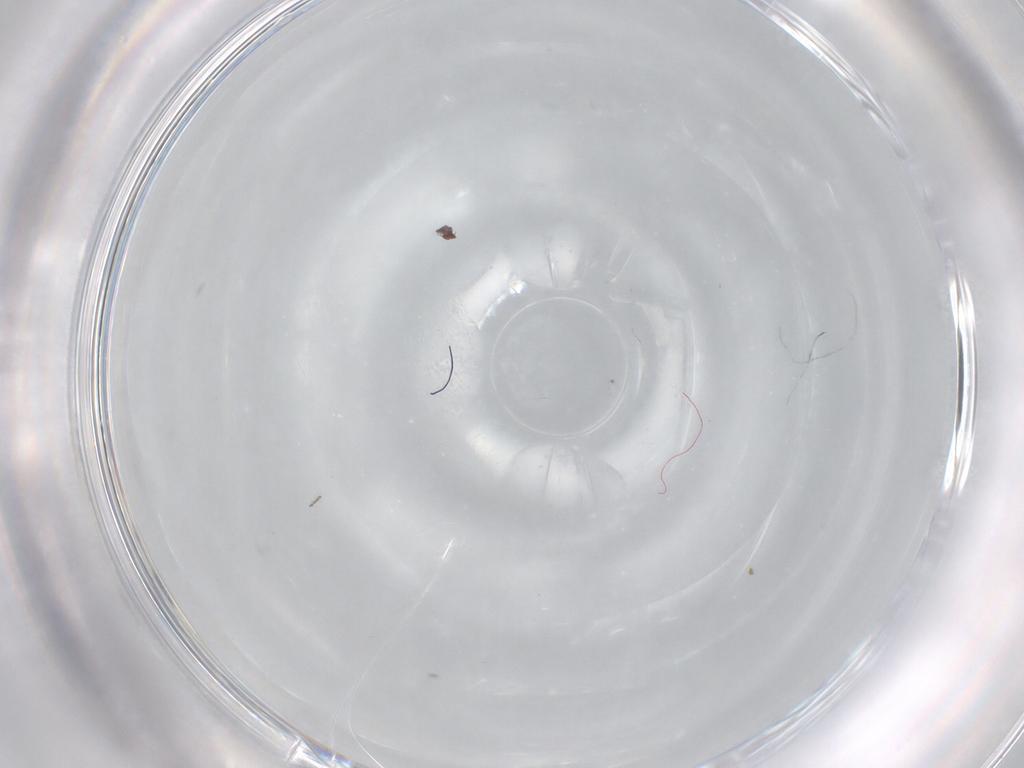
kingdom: Animalia
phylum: Arthropoda
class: Insecta
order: Diptera
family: Cecidomyiidae
